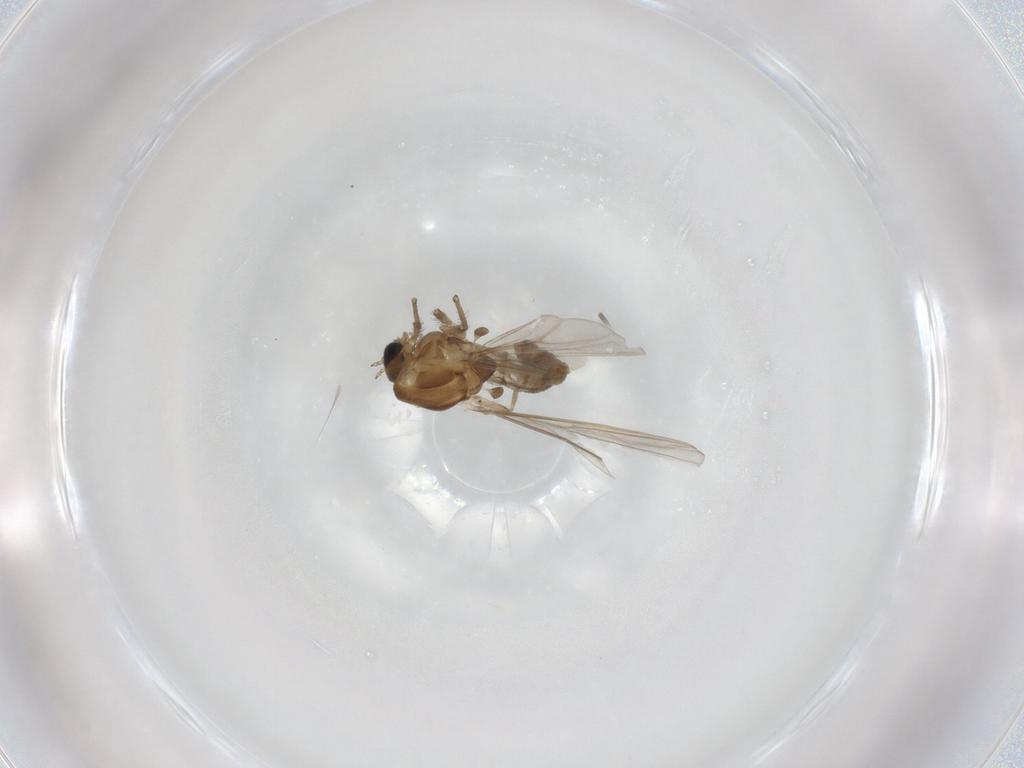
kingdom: Animalia
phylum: Arthropoda
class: Insecta
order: Diptera
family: Chironomidae
